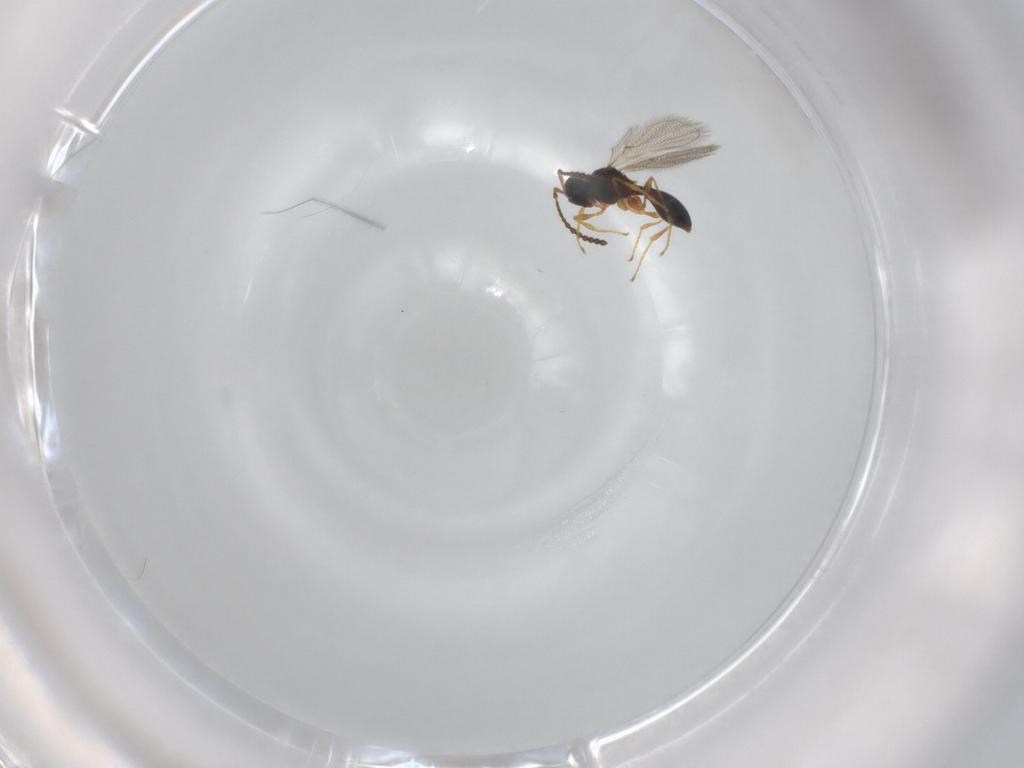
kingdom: Animalia
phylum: Arthropoda
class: Insecta
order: Hymenoptera
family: Diapriidae
